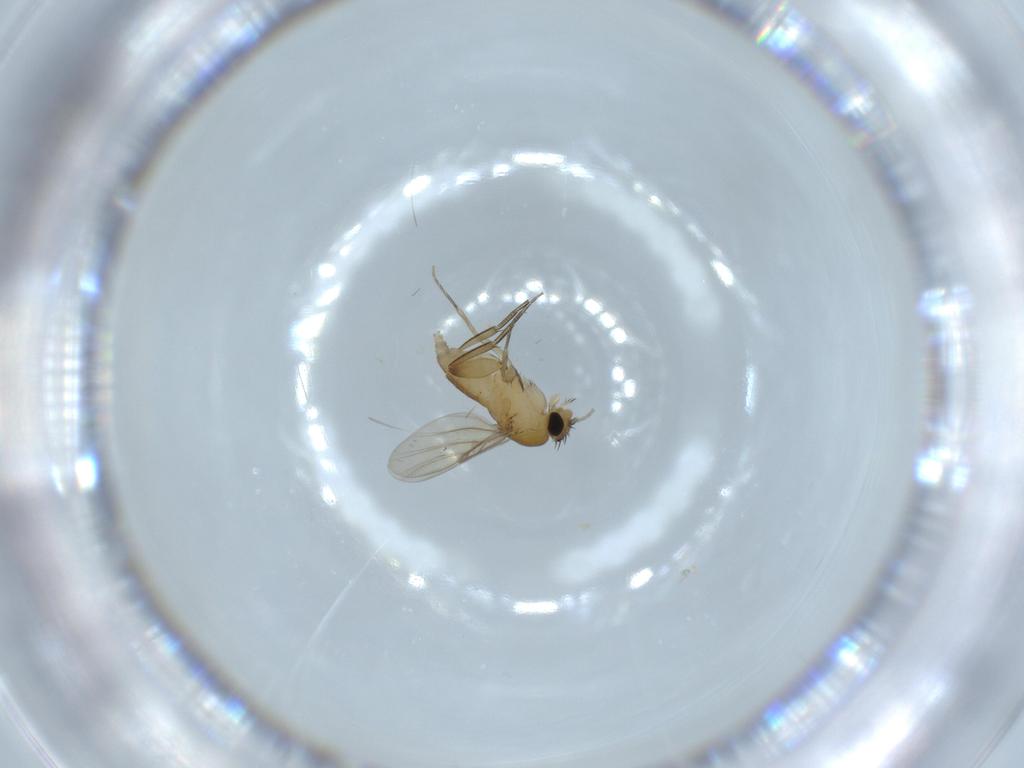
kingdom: Animalia
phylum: Arthropoda
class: Insecta
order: Diptera
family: Phoridae
